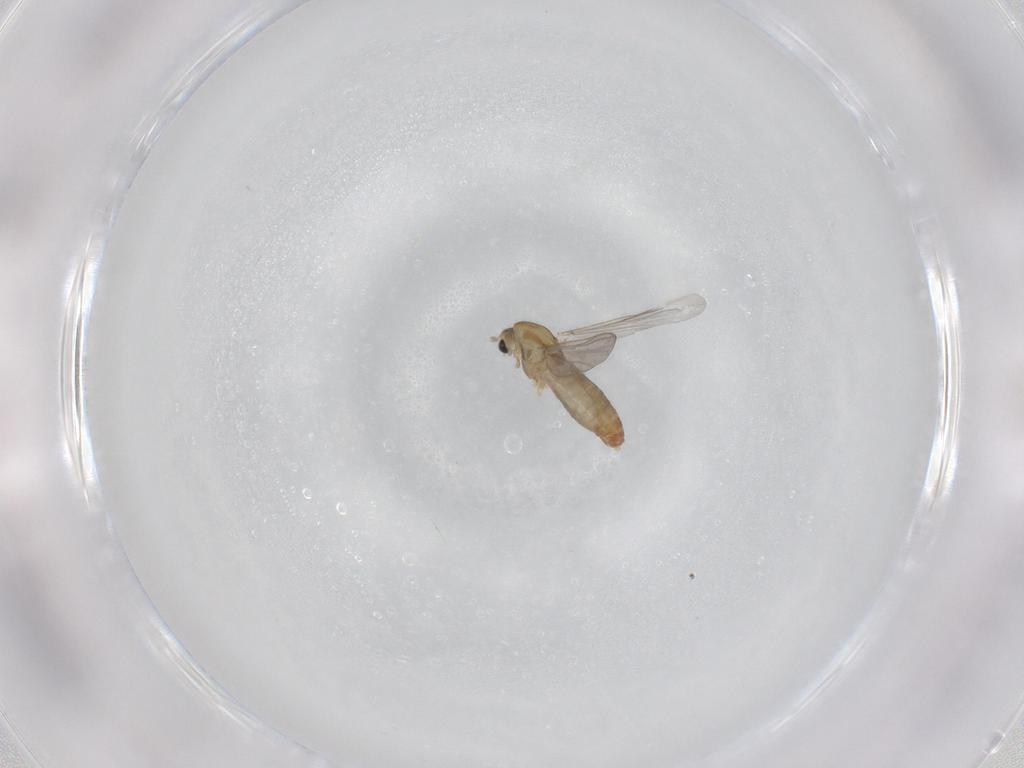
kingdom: Animalia
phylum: Arthropoda
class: Insecta
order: Diptera
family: Chironomidae
